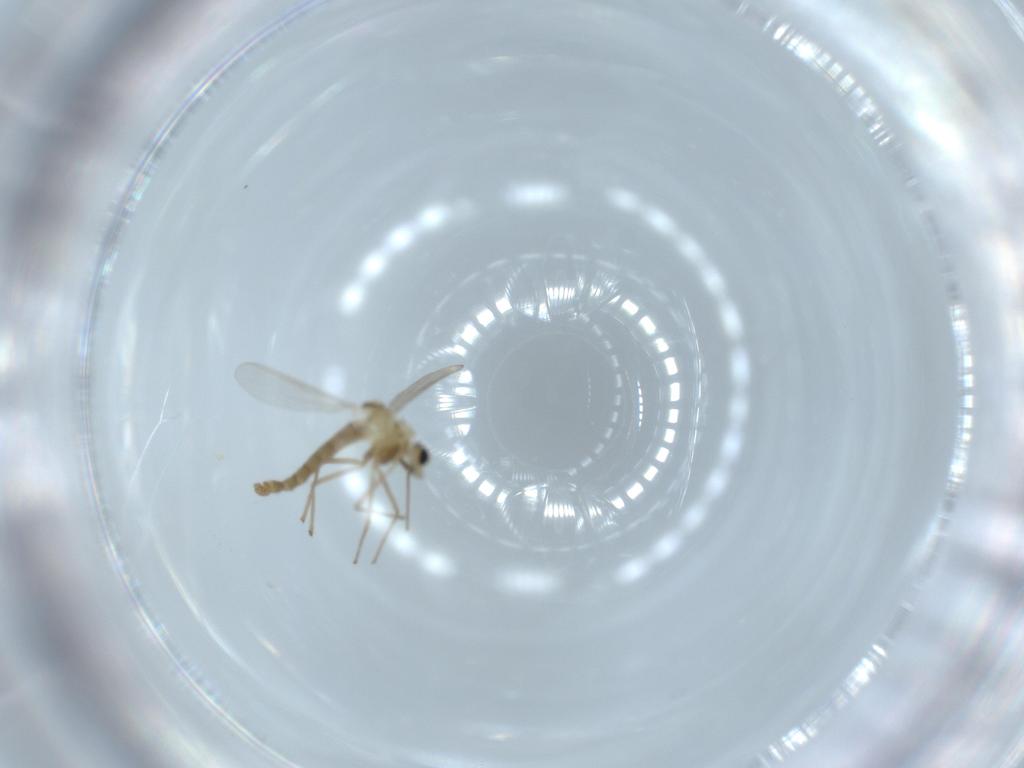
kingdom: Animalia
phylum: Arthropoda
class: Insecta
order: Diptera
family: Chironomidae
